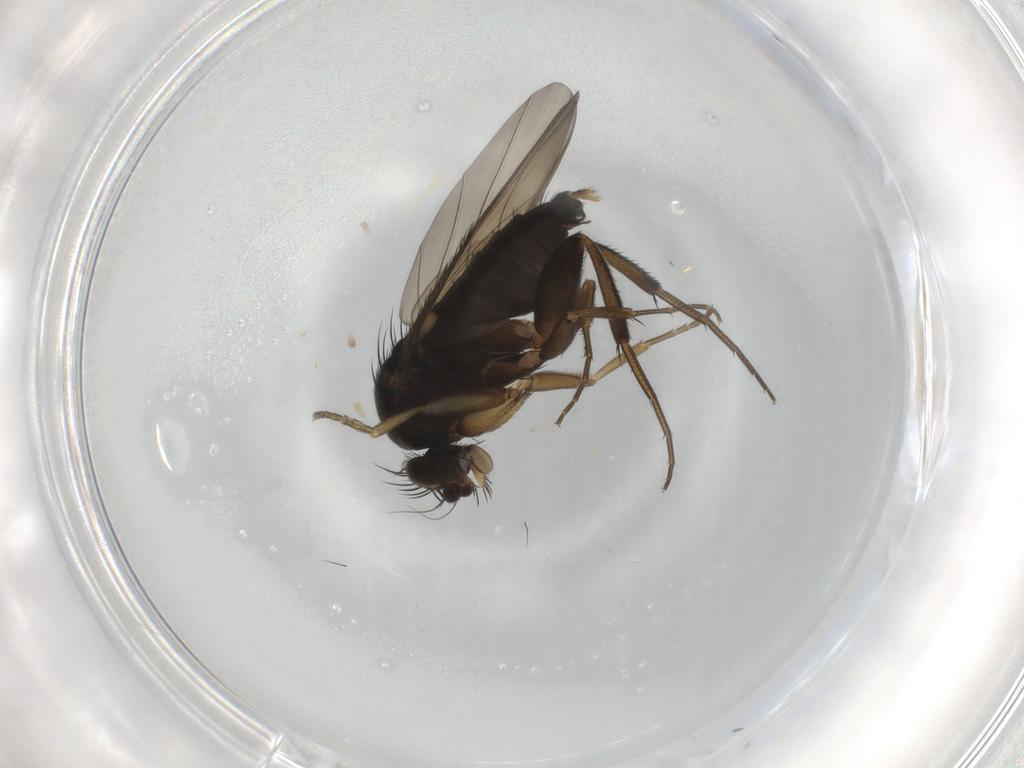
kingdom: Animalia
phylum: Arthropoda
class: Insecta
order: Diptera
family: Phoridae
